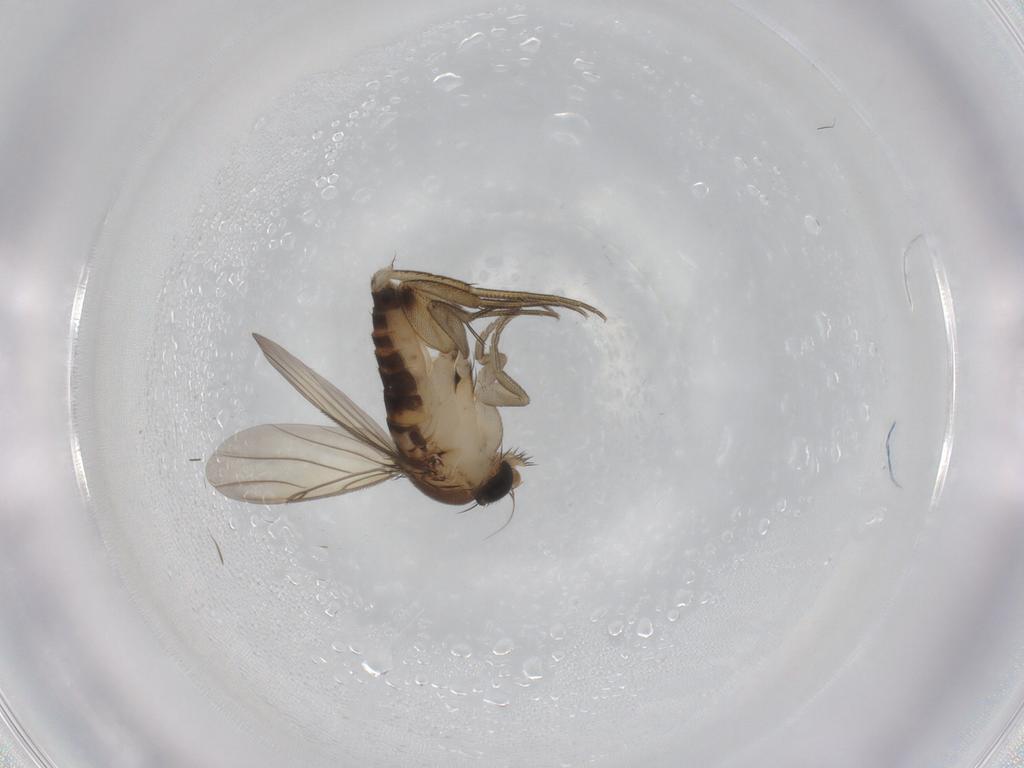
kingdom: Animalia
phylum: Arthropoda
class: Insecta
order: Diptera
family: Phoridae
